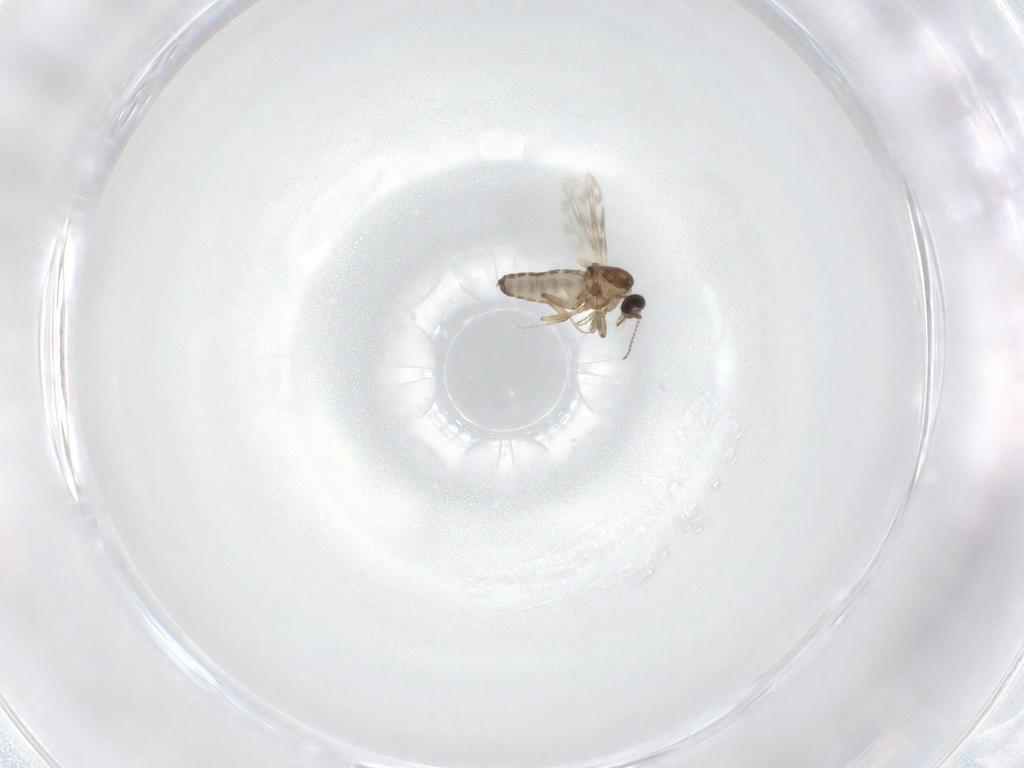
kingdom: Animalia
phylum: Arthropoda
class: Insecta
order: Diptera
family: Ceratopogonidae
